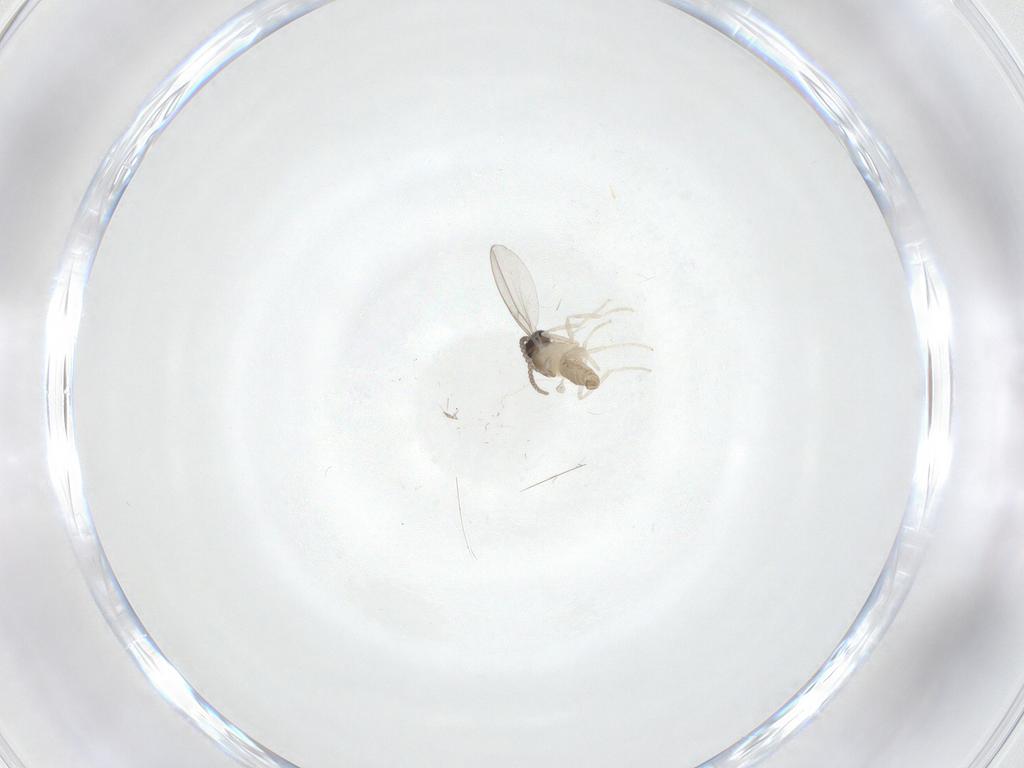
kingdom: Animalia
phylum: Arthropoda
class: Insecta
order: Diptera
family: Cecidomyiidae
